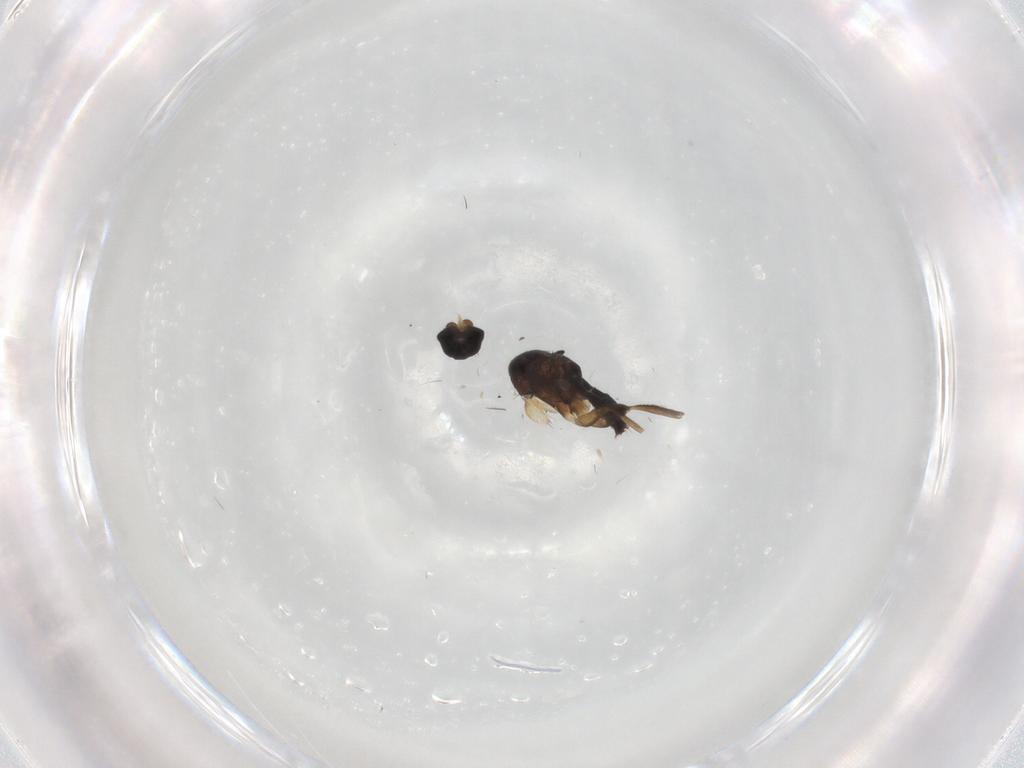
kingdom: Animalia
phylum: Arthropoda
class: Insecta
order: Diptera
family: Phoridae
